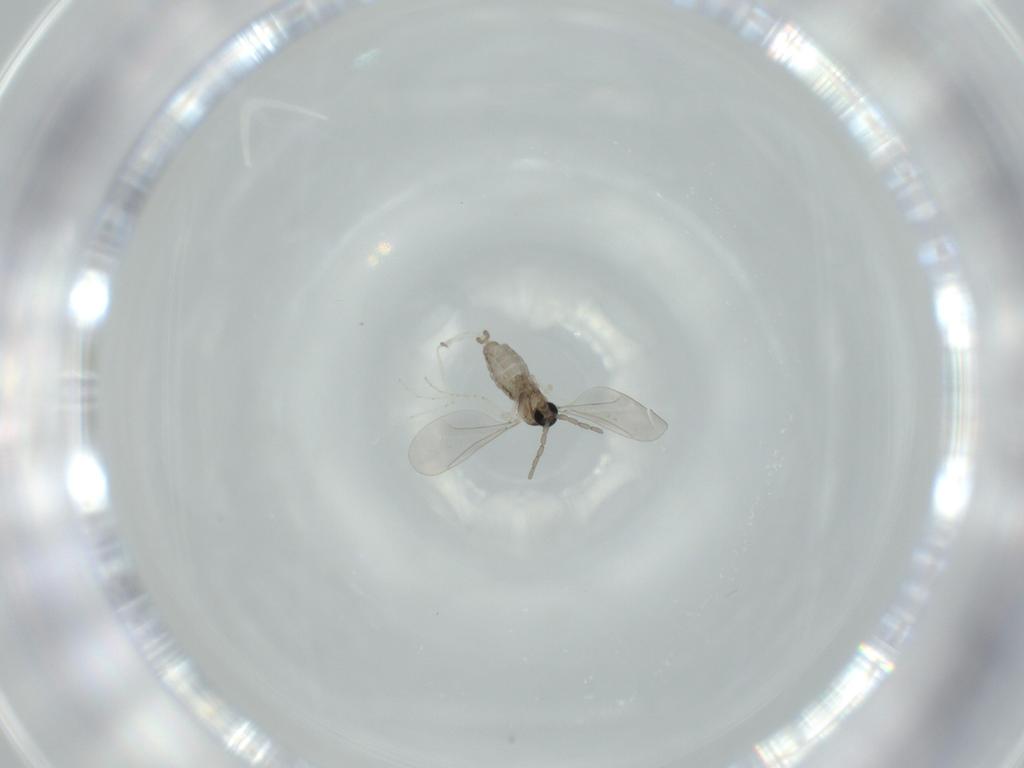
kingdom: Animalia
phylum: Arthropoda
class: Insecta
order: Diptera
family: Cecidomyiidae
